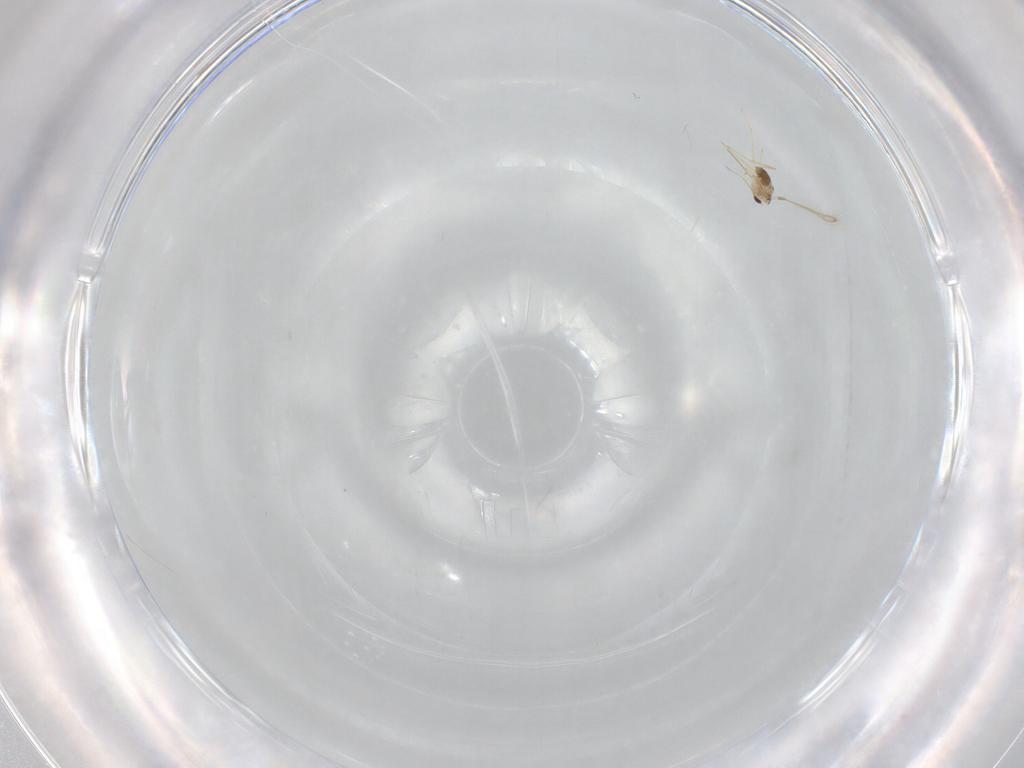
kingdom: Animalia
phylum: Arthropoda
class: Insecta
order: Hymenoptera
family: Mymaridae
